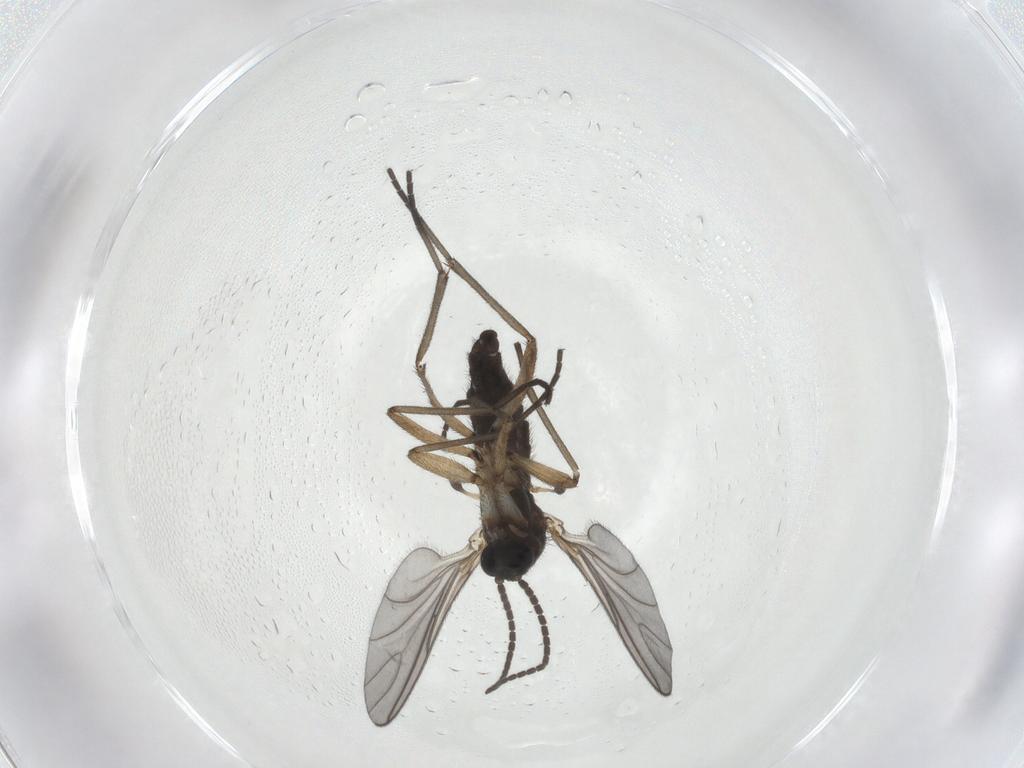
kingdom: Animalia
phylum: Arthropoda
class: Insecta
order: Diptera
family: Sciaridae
